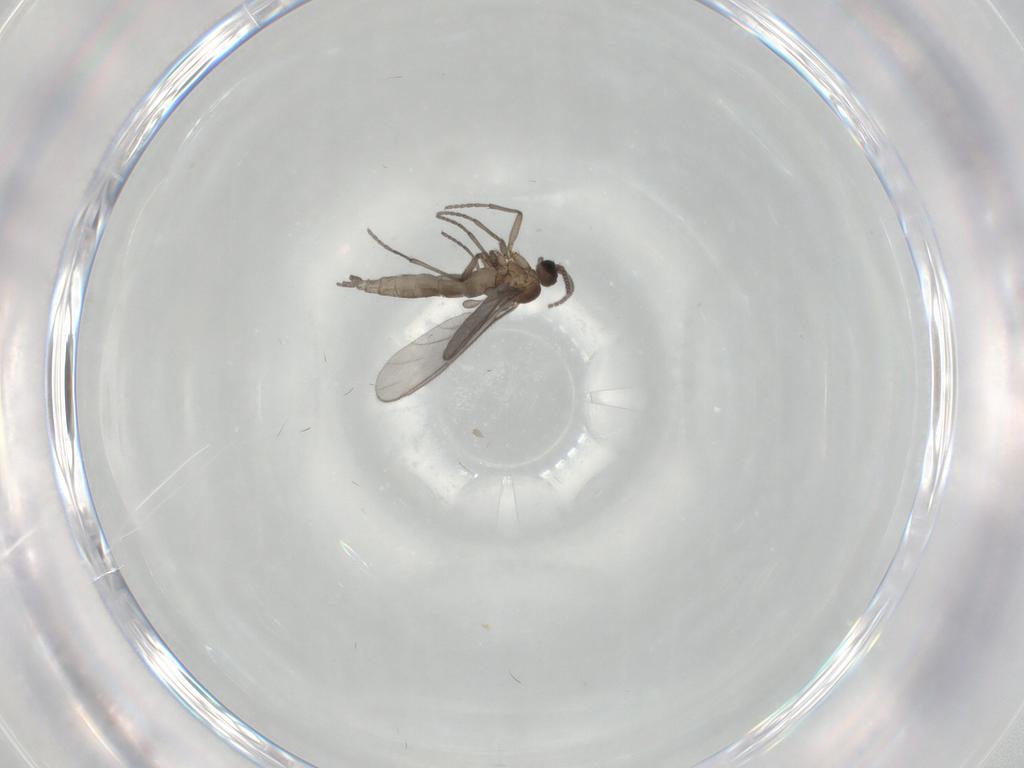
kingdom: Animalia
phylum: Arthropoda
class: Insecta
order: Diptera
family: Sciaridae
